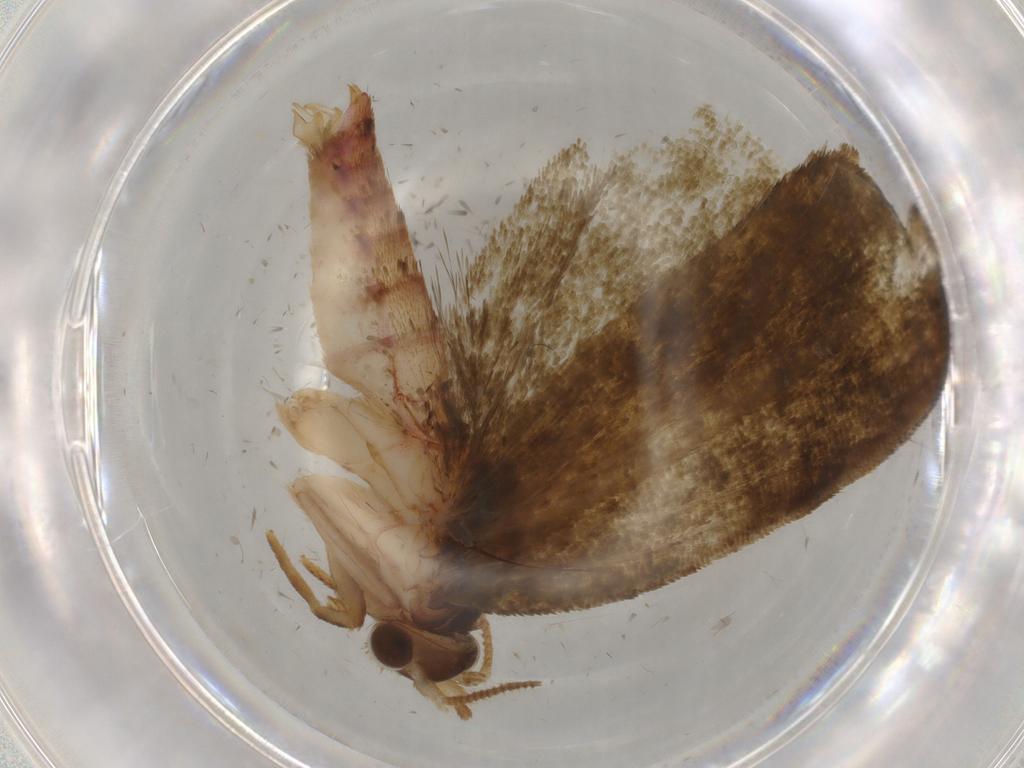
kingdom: Animalia
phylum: Arthropoda
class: Insecta
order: Lepidoptera
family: Geometridae
